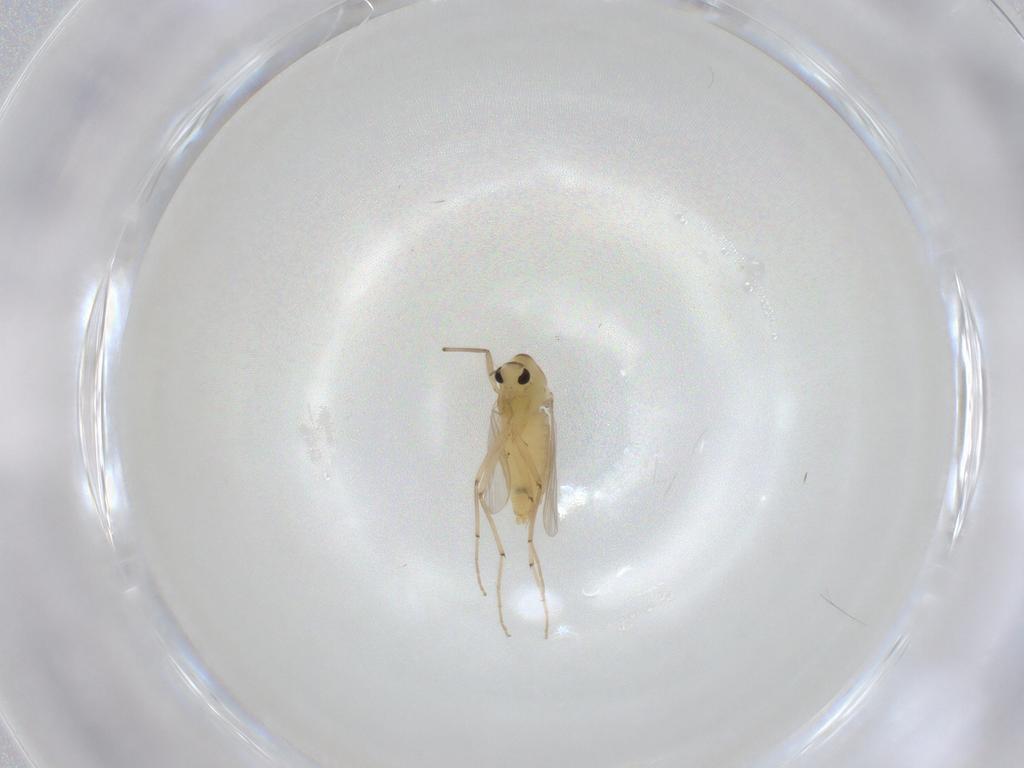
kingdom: Animalia
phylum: Arthropoda
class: Insecta
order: Diptera
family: Chironomidae
